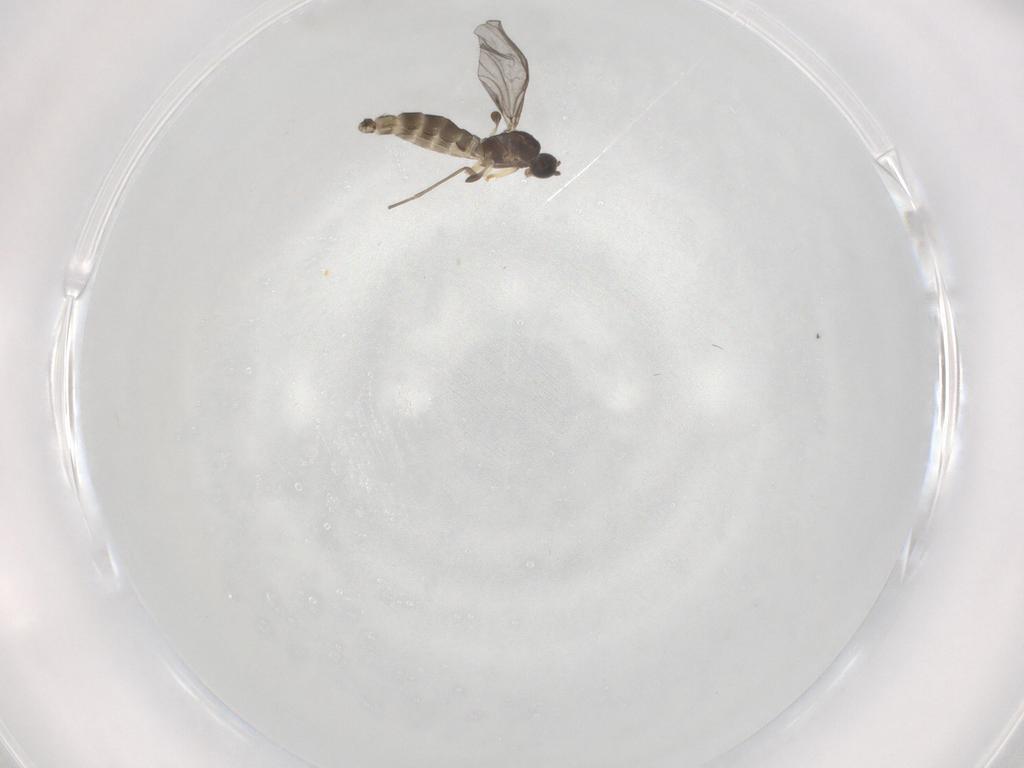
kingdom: Animalia
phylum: Arthropoda
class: Insecta
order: Diptera
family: Sciaridae
